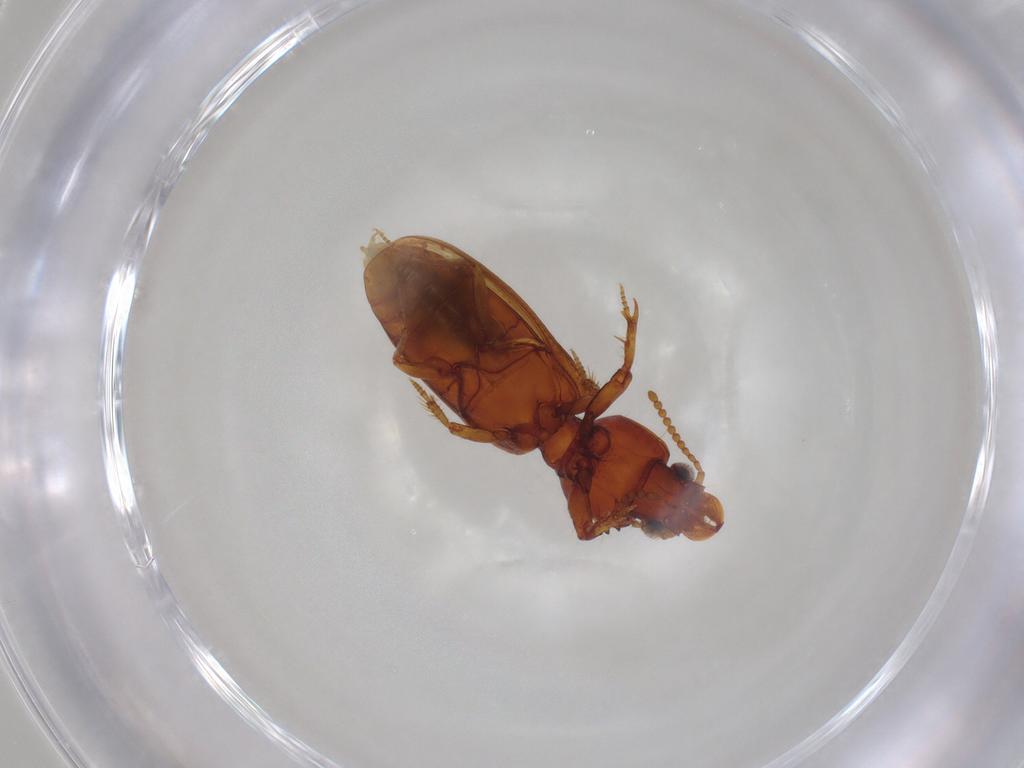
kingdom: Animalia
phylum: Arthropoda
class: Insecta
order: Coleoptera
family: Carabidae
